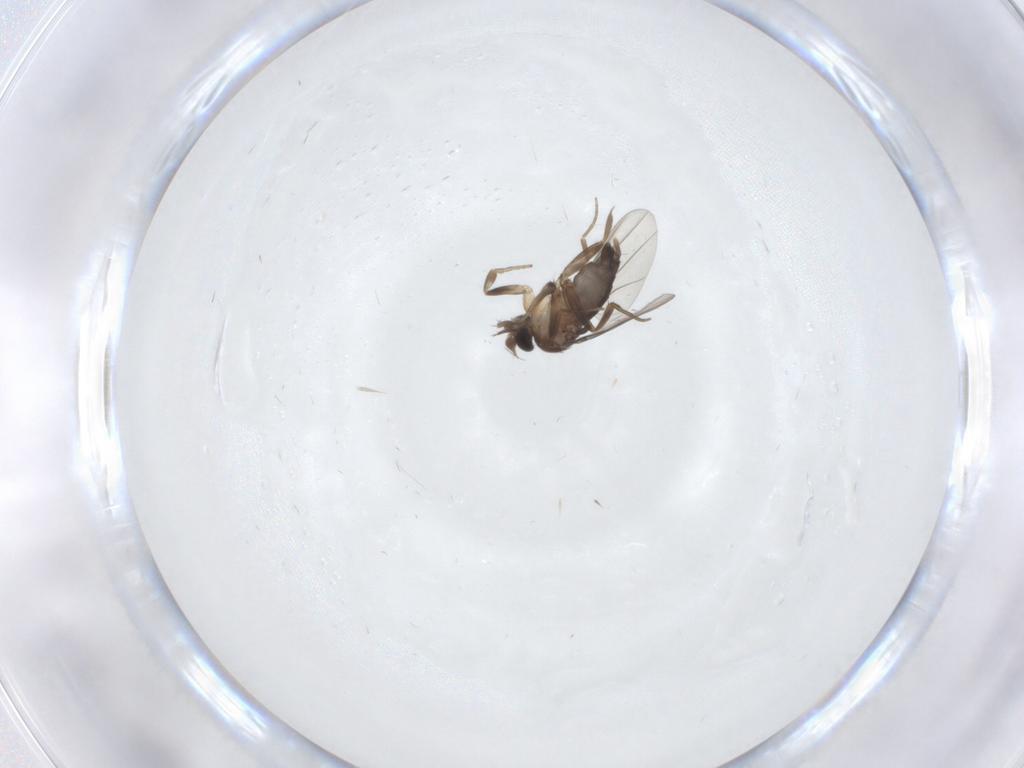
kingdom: Animalia
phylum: Arthropoda
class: Insecta
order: Diptera
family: Phoridae
